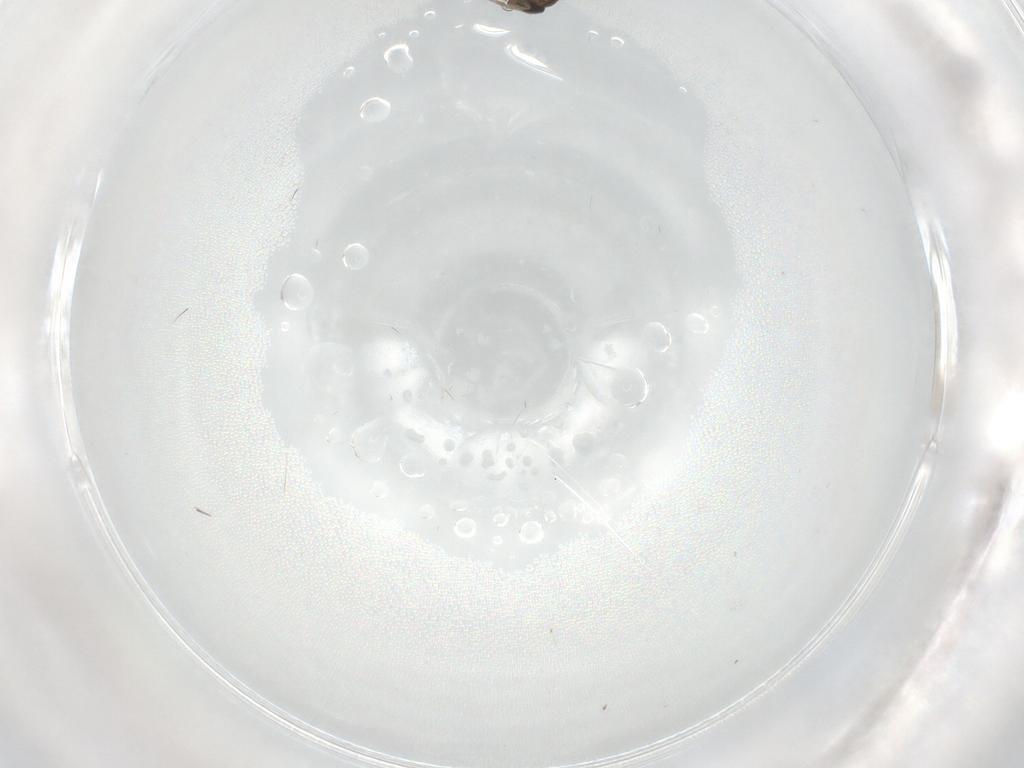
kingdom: Animalia
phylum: Arthropoda
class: Insecta
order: Diptera
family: Phoridae
